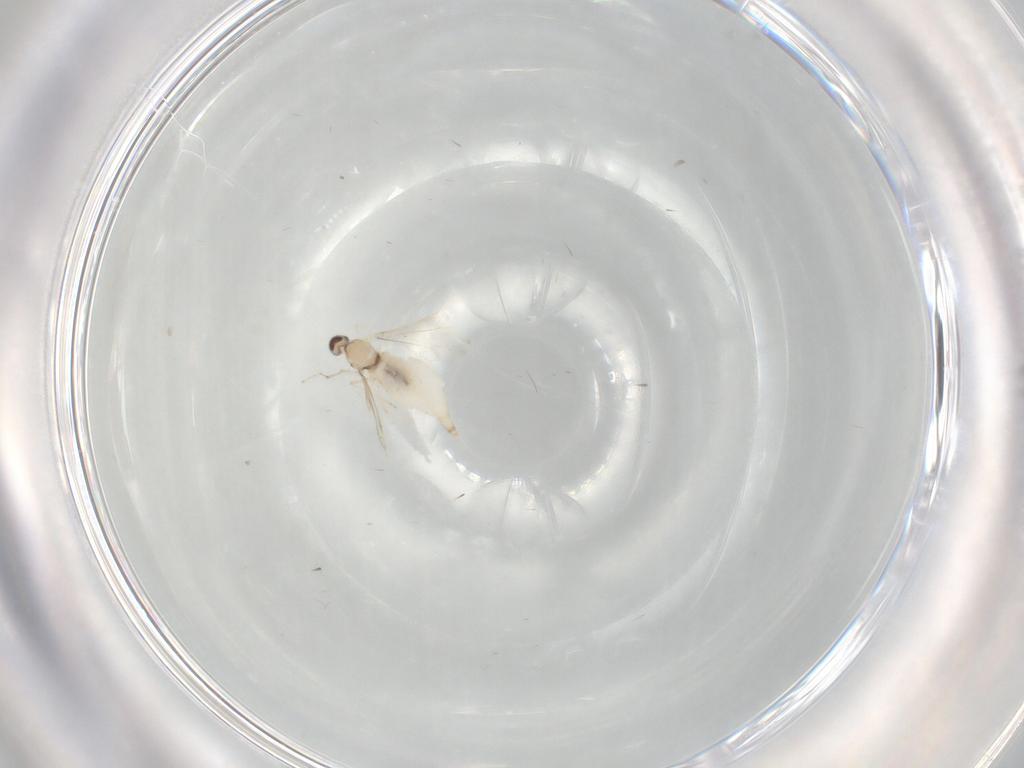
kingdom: Animalia
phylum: Arthropoda
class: Insecta
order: Diptera
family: Cecidomyiidae
